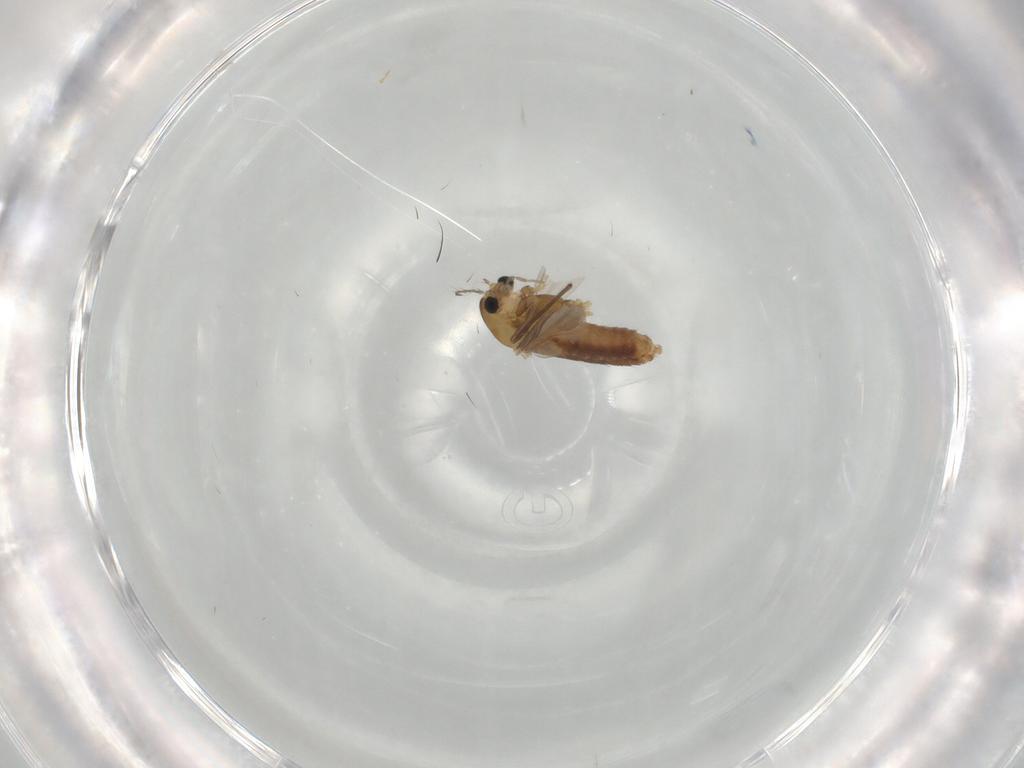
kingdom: Animalia
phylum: Arthropoda
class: Insecta
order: Diptera
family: Chironomidae
